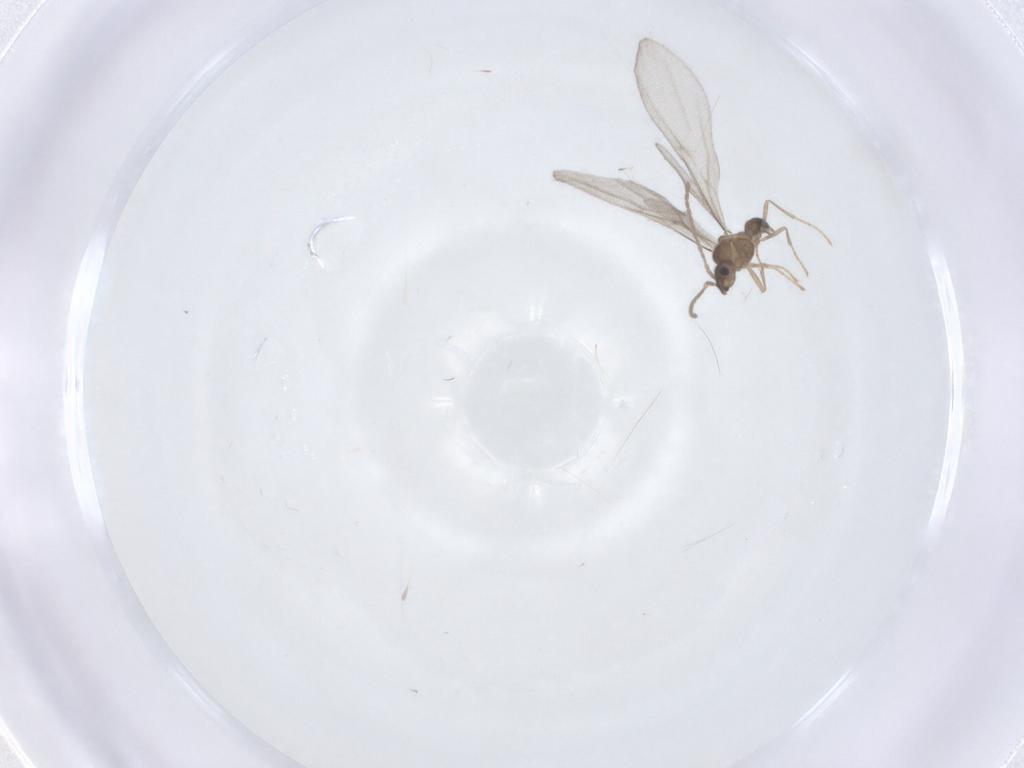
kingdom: Animalia
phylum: Arthropoda
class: Insecta
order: Hymenoptera
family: Formicidae
